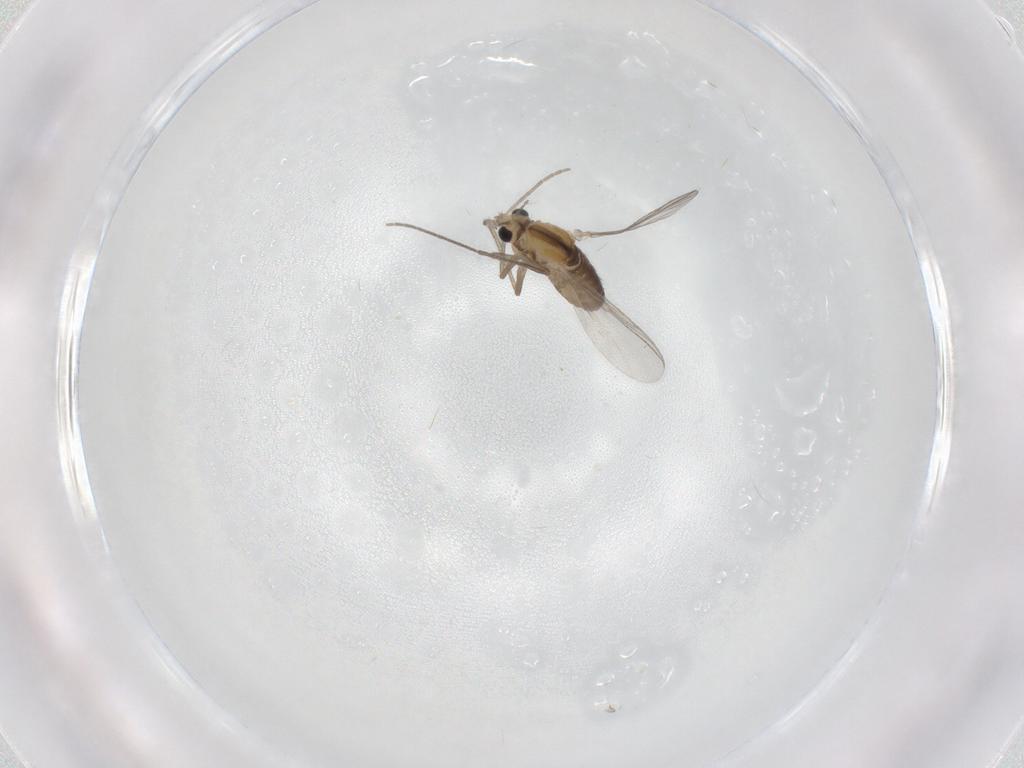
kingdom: Animalia
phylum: Arthropoda
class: Insecta
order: Diptera
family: Chironomidae
